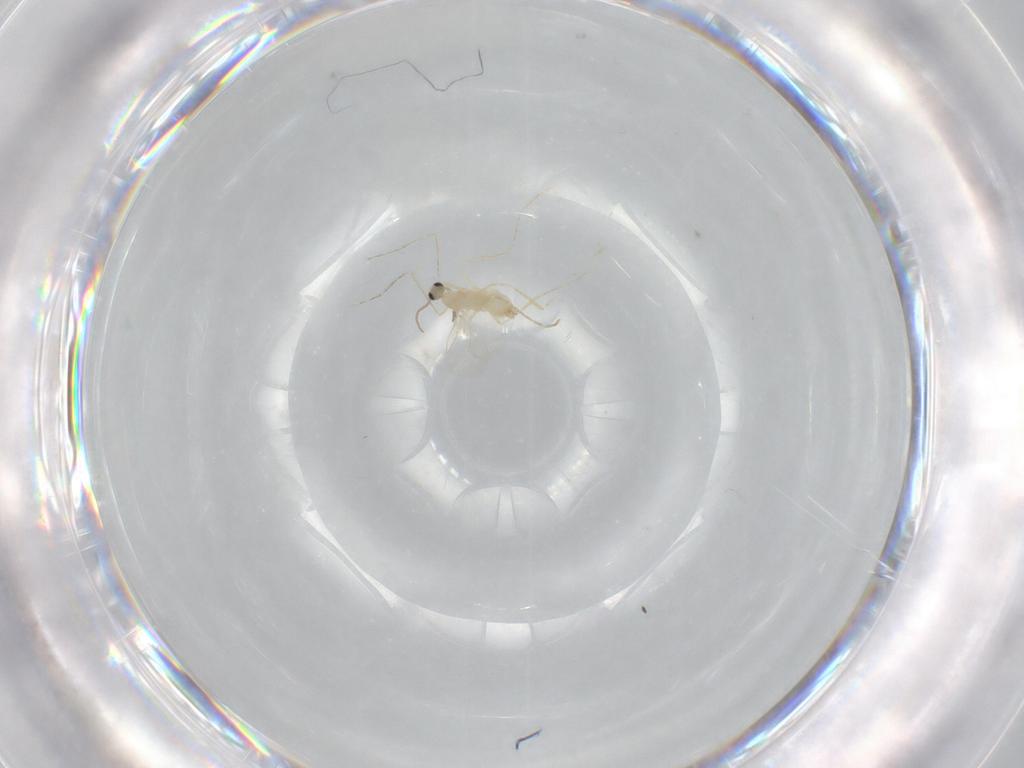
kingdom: Animalia
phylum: Arthropoda
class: Insecta
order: Diptera
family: Cecidomyiidae
